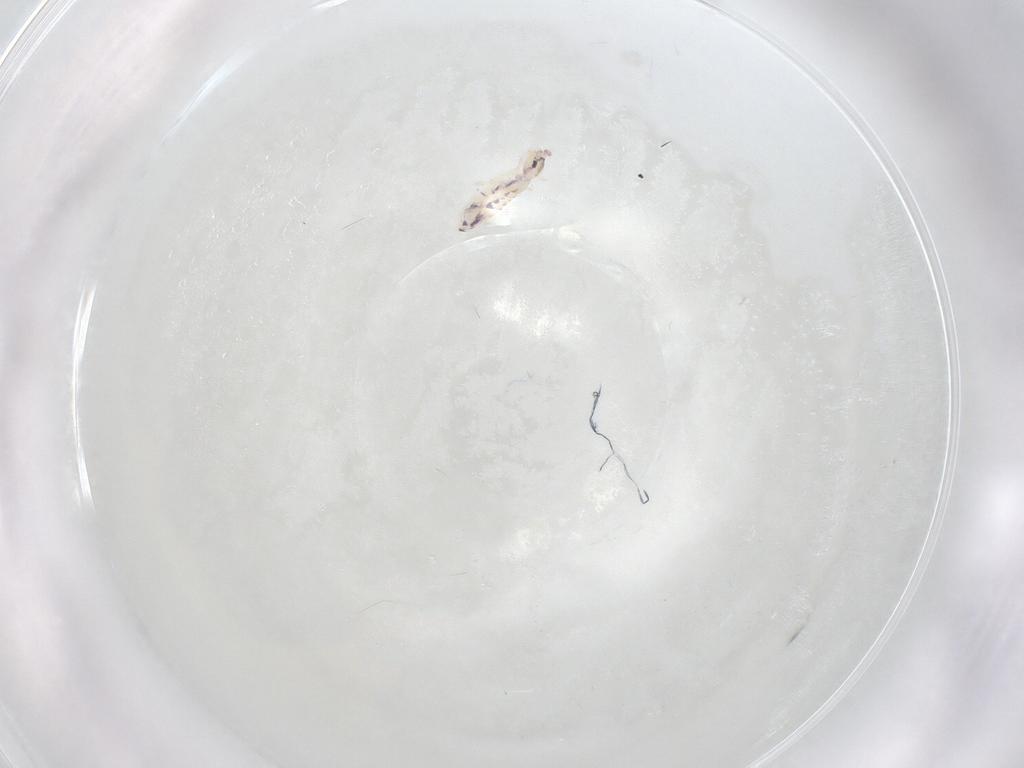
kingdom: Animalia
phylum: Arthropoda
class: Collembola
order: Entomobryomorpha
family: Entomobryidae
